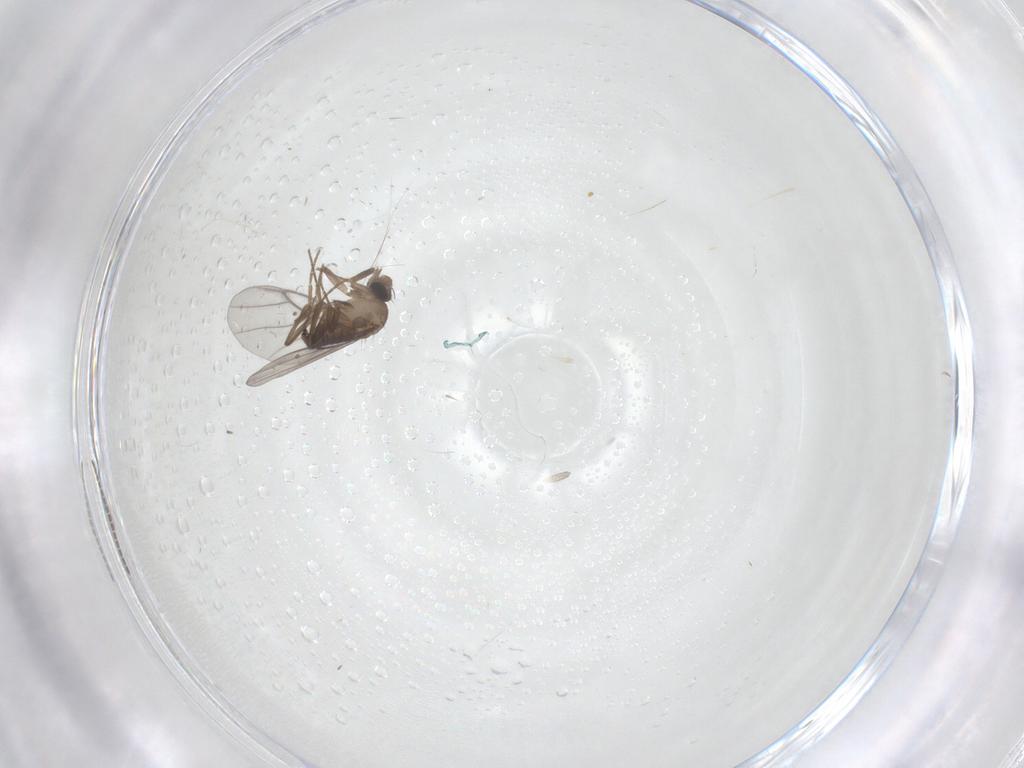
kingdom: Animalia
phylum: Arthropoda
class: Insecta
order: Diptera
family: Sciaridae
